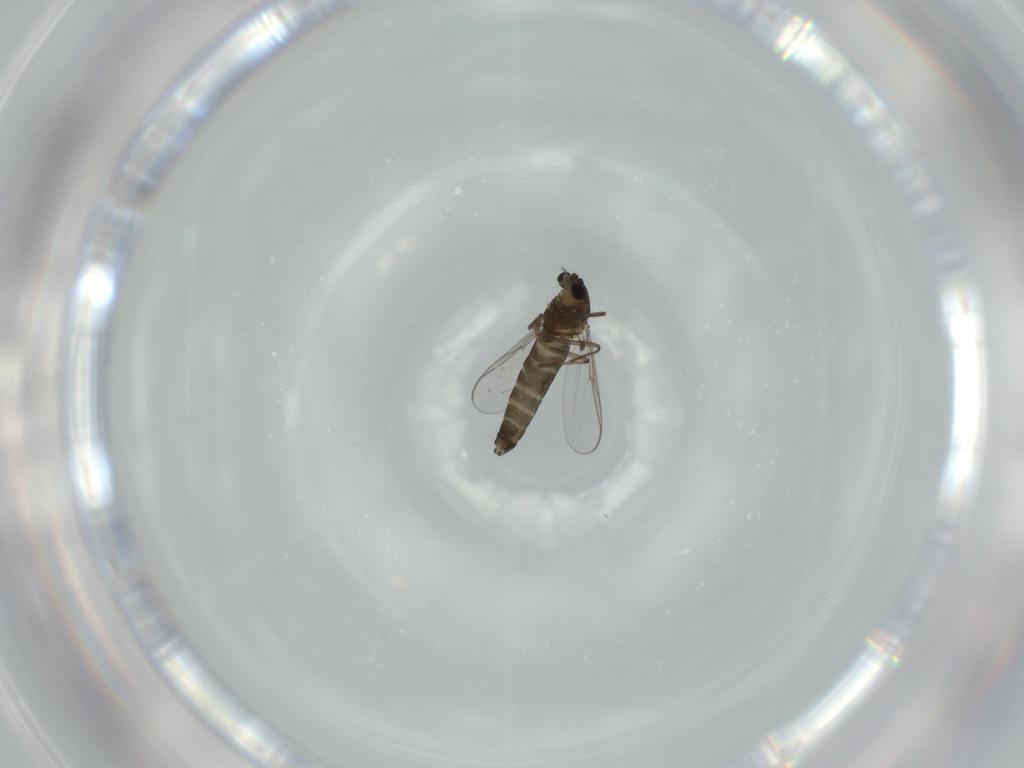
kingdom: Animalia
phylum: Arthropoda
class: Insecta
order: Diptera
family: Chironomidae
